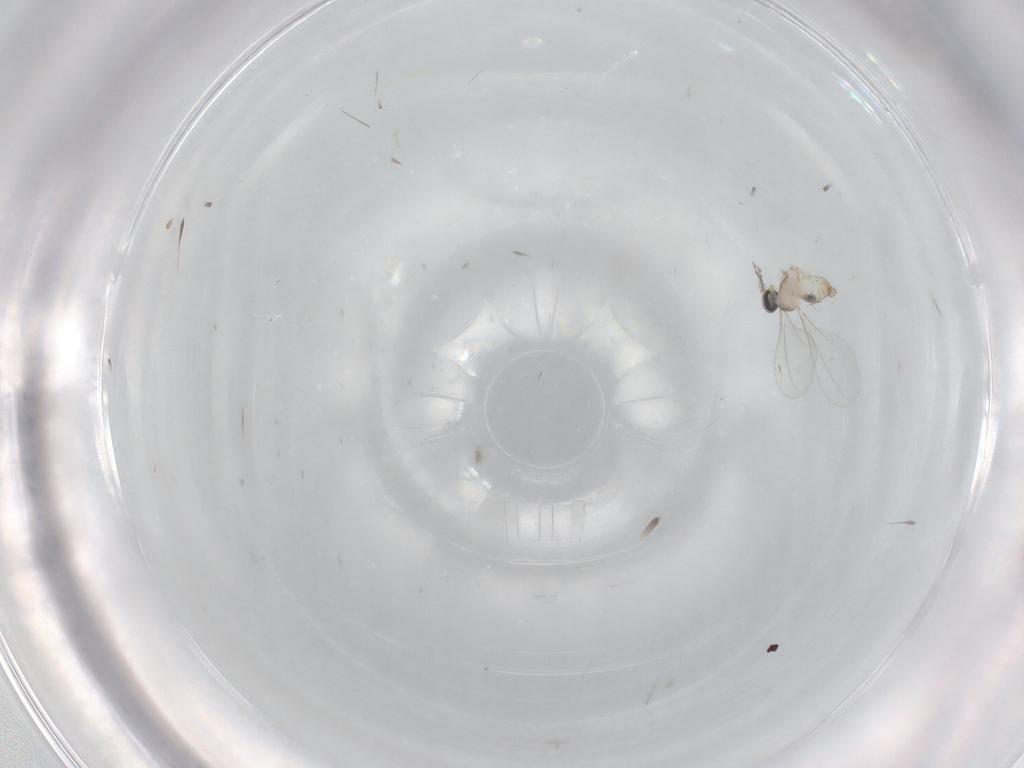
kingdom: Animalia
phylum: Arthropoda
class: Insecta
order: Diptera
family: Cecidomyiidae
